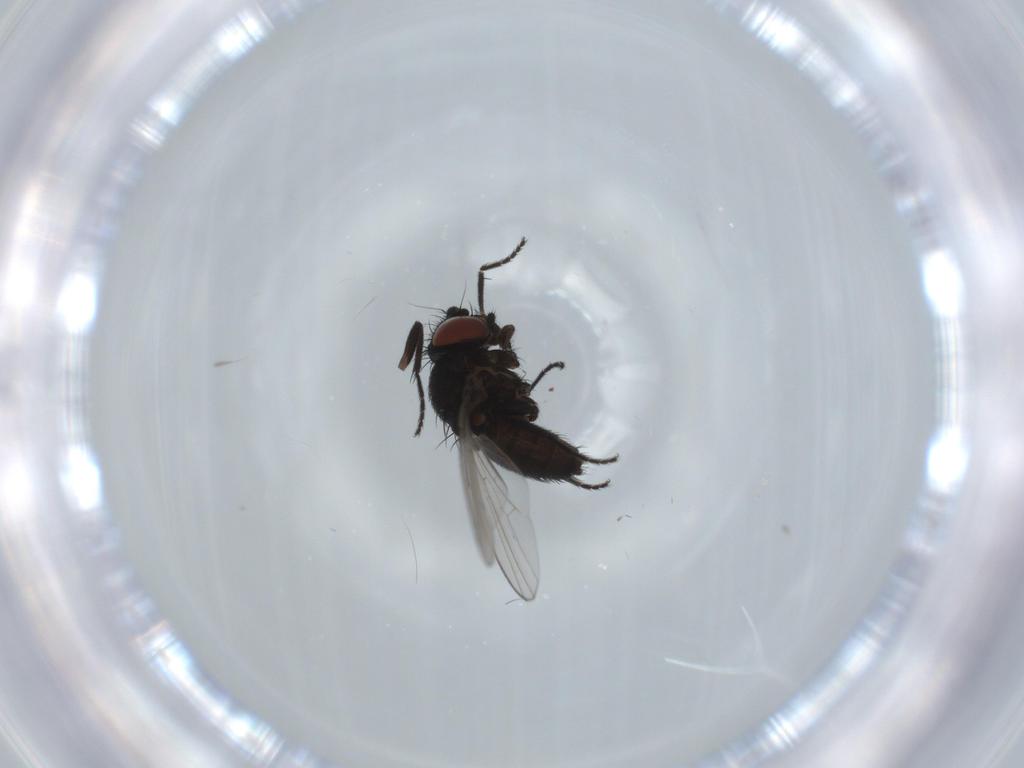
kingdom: Animalia
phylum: Arthropoda
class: Insecta
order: Diptera
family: Milichiidae
